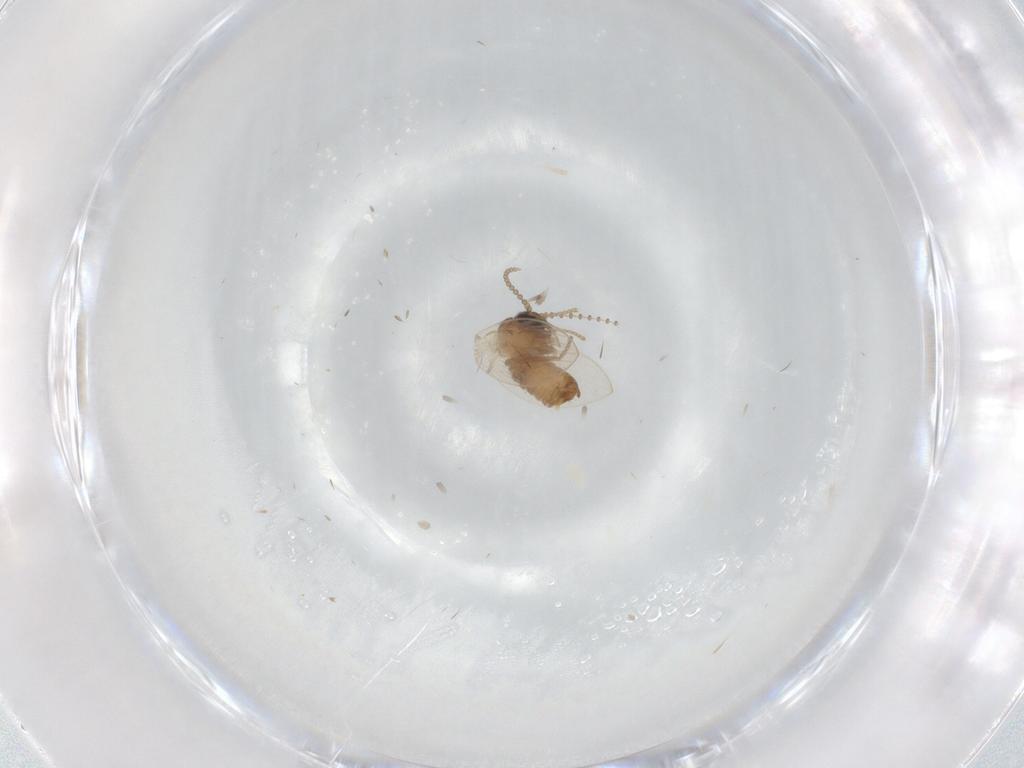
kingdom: Animalia
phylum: Arthropoda
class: Insecta
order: Diptera
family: Ceratopogonidae
